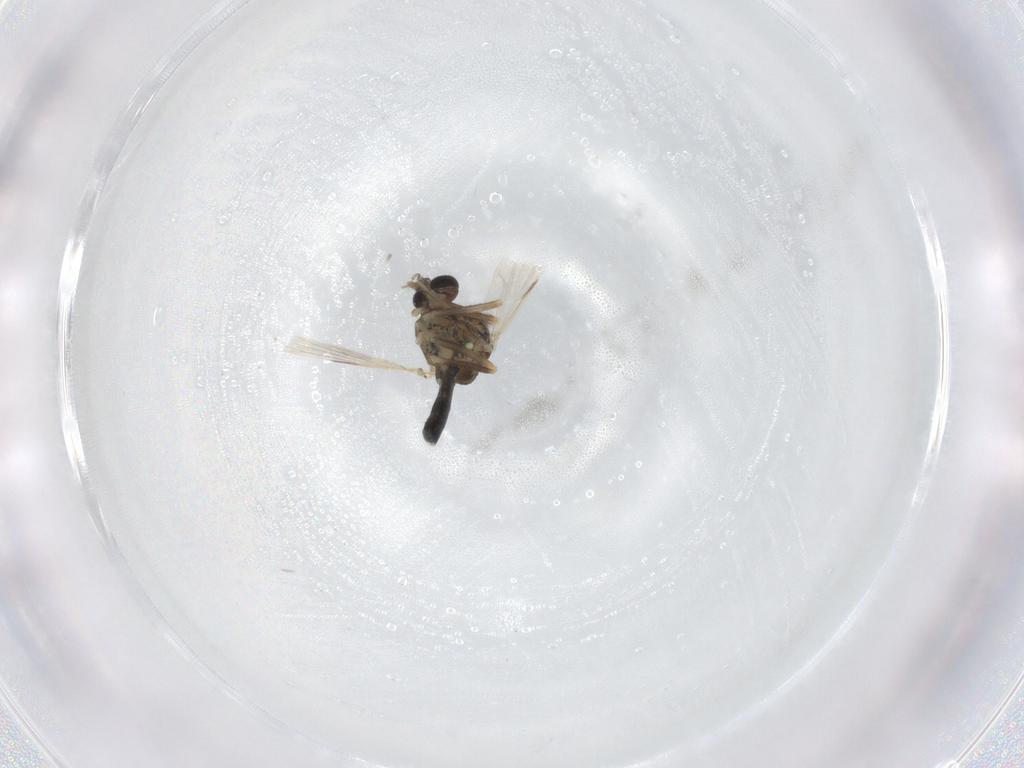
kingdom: Animalia
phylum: Arthropoda
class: Insecta
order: Diptera
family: Ceratopogonidae
